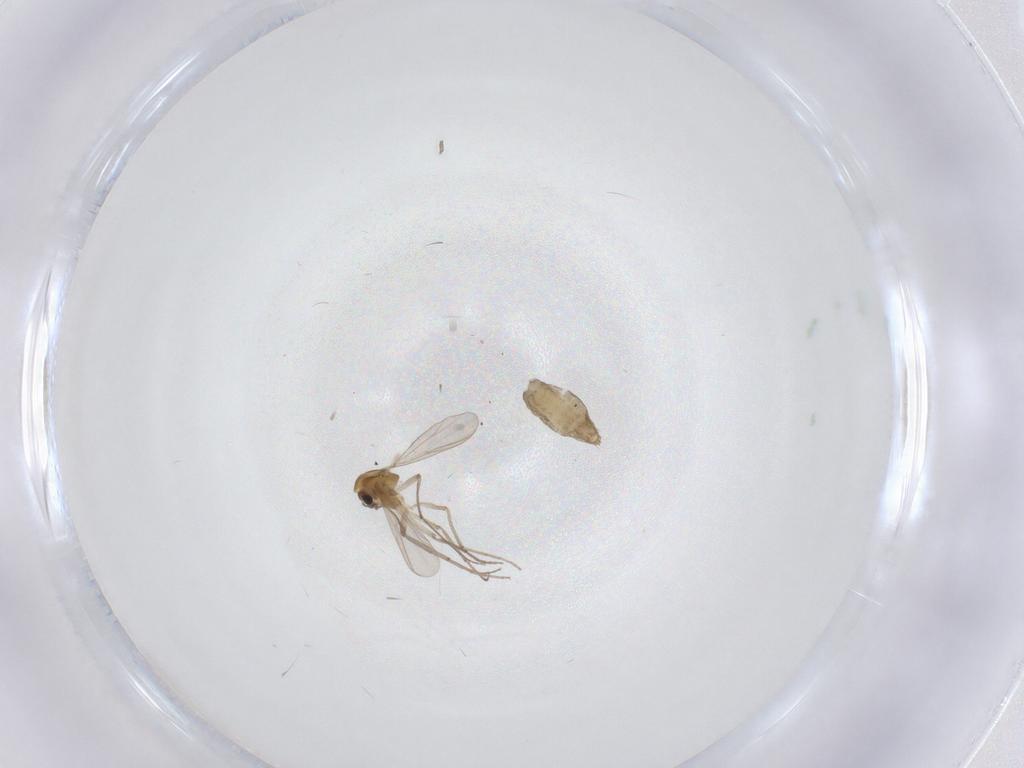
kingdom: Animalia
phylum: Arthropoda
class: Insecta
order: Diptera
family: Chironomidae
